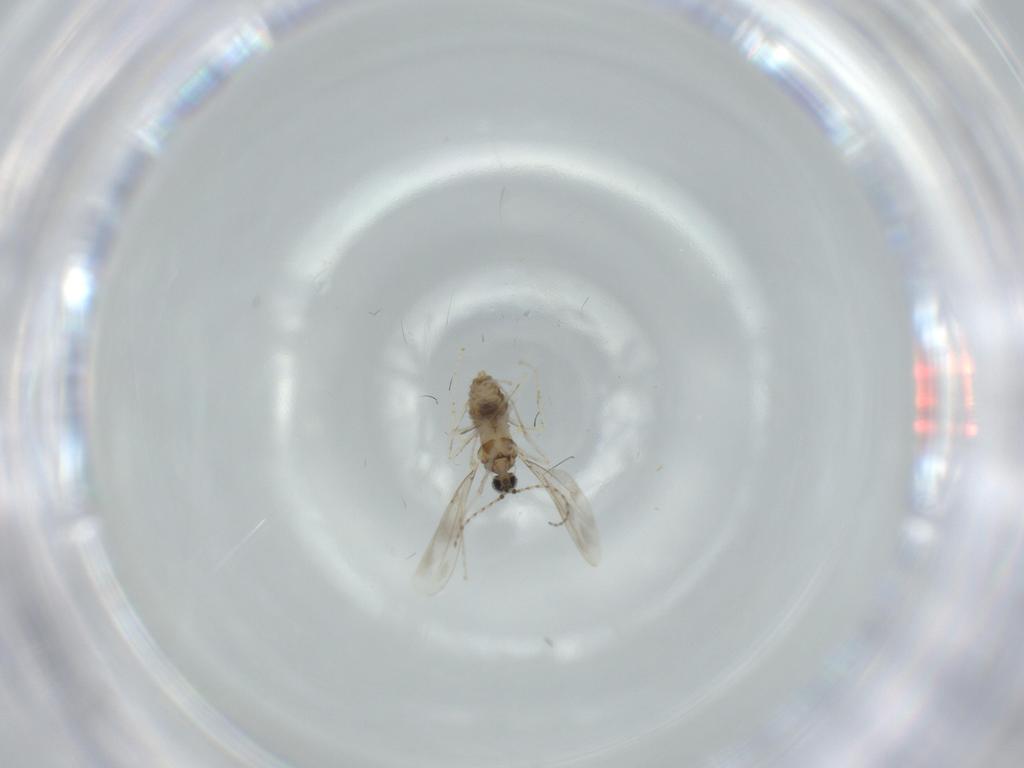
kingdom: Animalia
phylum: Arthropoda
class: Insecta
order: Diptera
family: Cecidomyiidae
